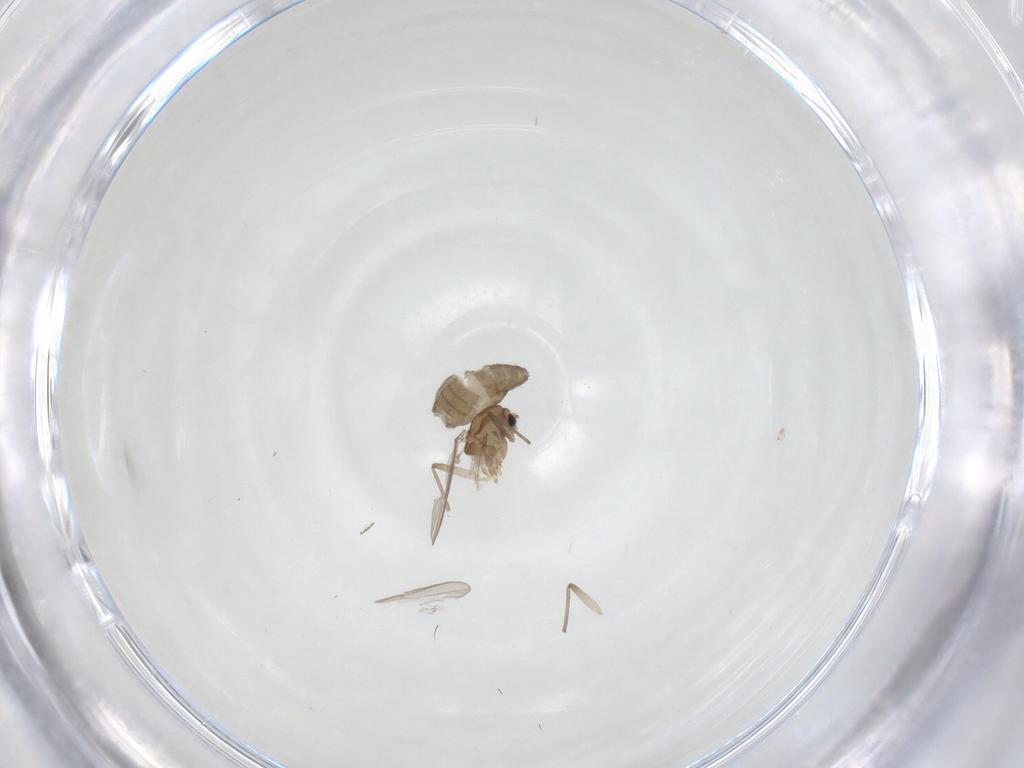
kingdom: Animalia
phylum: Arthropoda
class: Insecta
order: Diptera
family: Chironomidae
